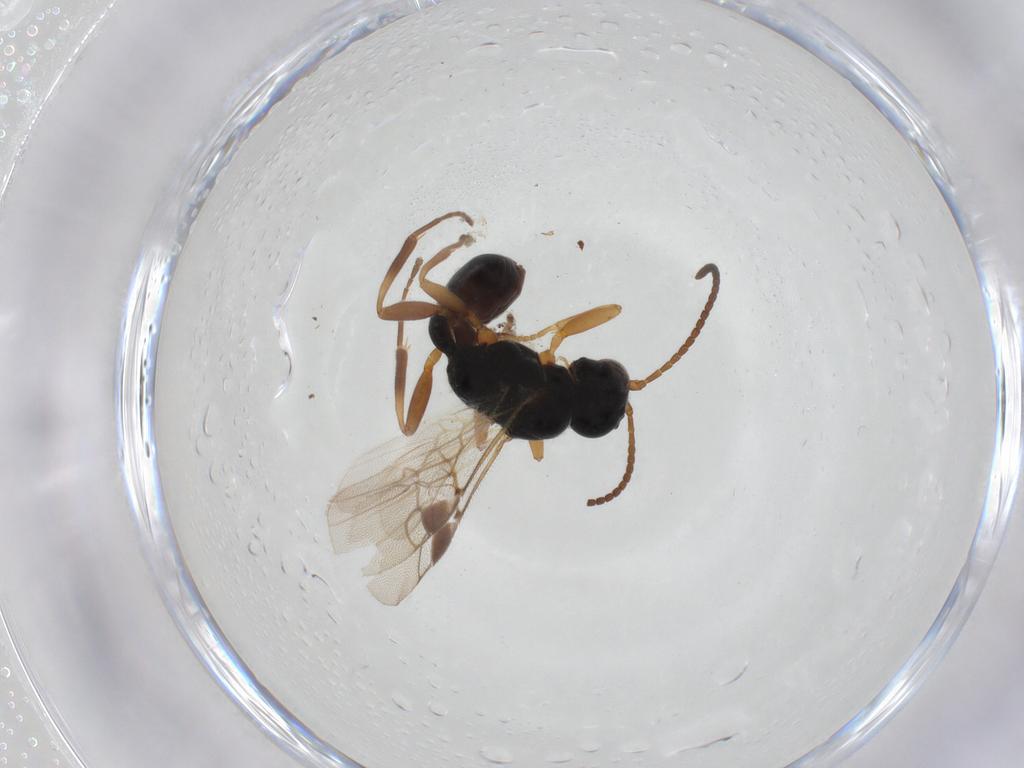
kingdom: Animalia
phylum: Arthropoda
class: Insecta
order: Hymenoptera
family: Braconidae
